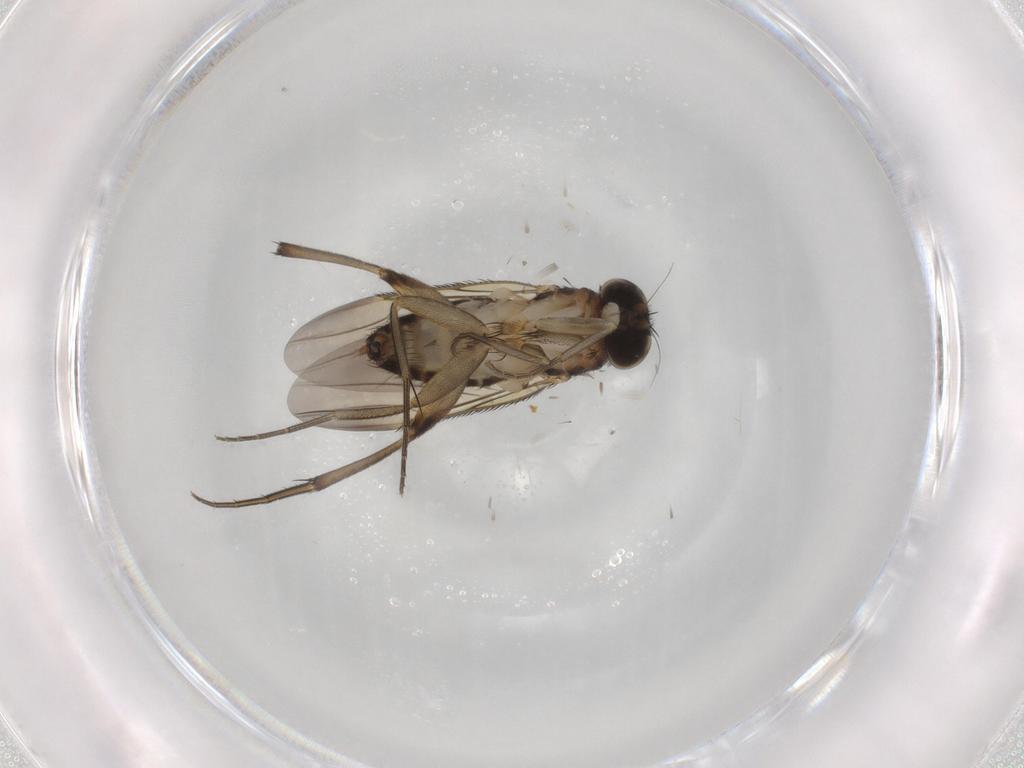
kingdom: Animalia
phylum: Arthropoda
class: Insecta
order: Diptera
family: Phoridae
